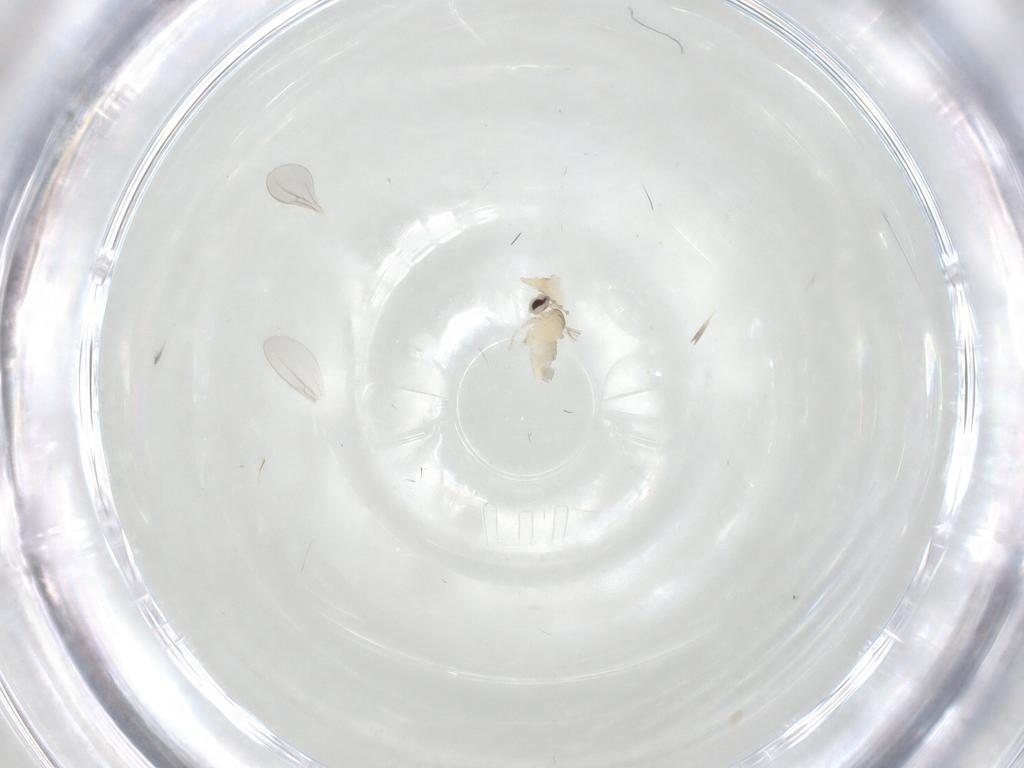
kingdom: Animalia
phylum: Arthropoda
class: Insecta
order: Diptera
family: Cecidomyiidae
